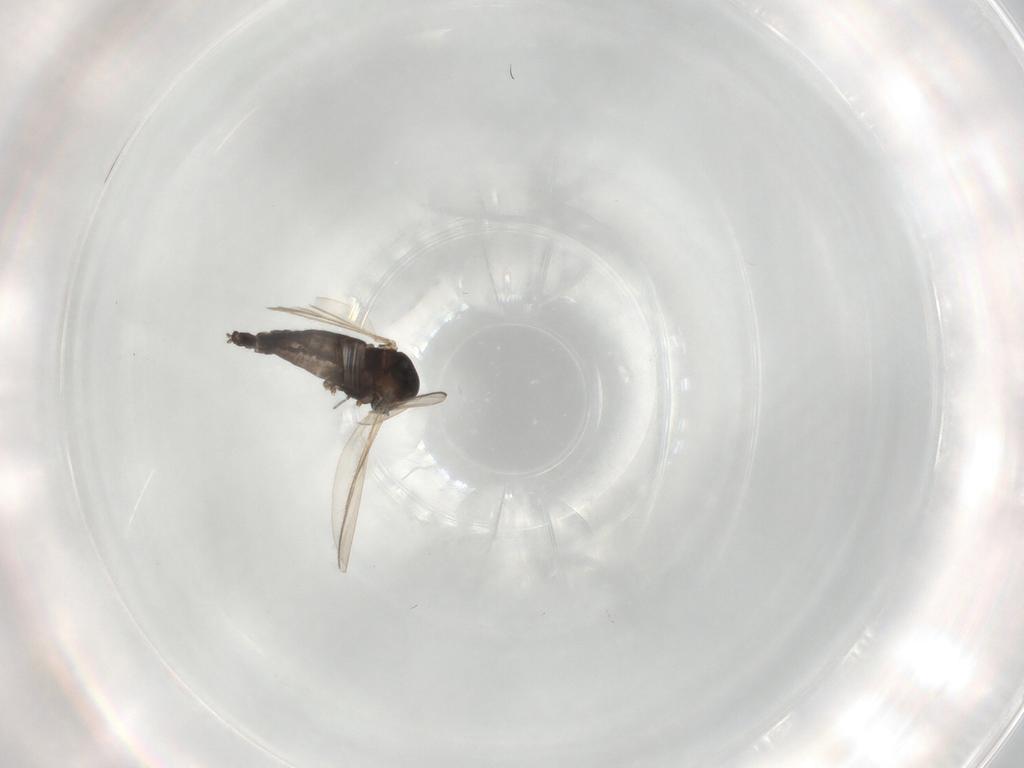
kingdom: Animalia
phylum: Arthropoda
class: Insecta
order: Diptera
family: Chironomidae
